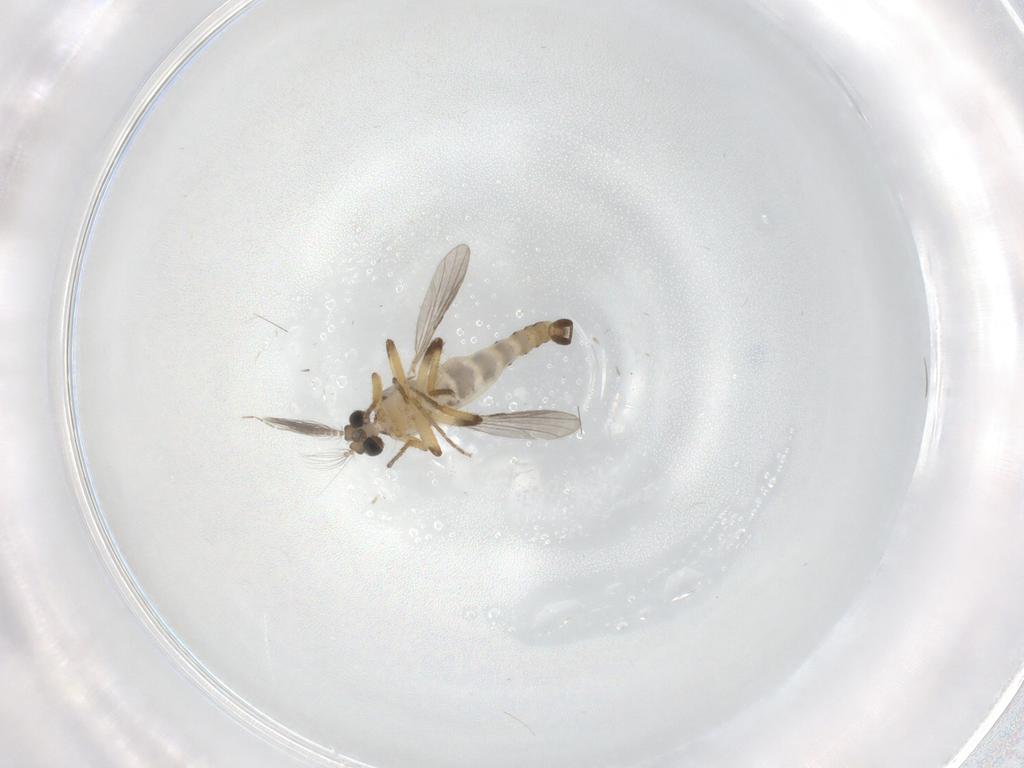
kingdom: Animalia
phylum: Arthropoda
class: Insecta
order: Diptera
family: Ceratopogonidae
